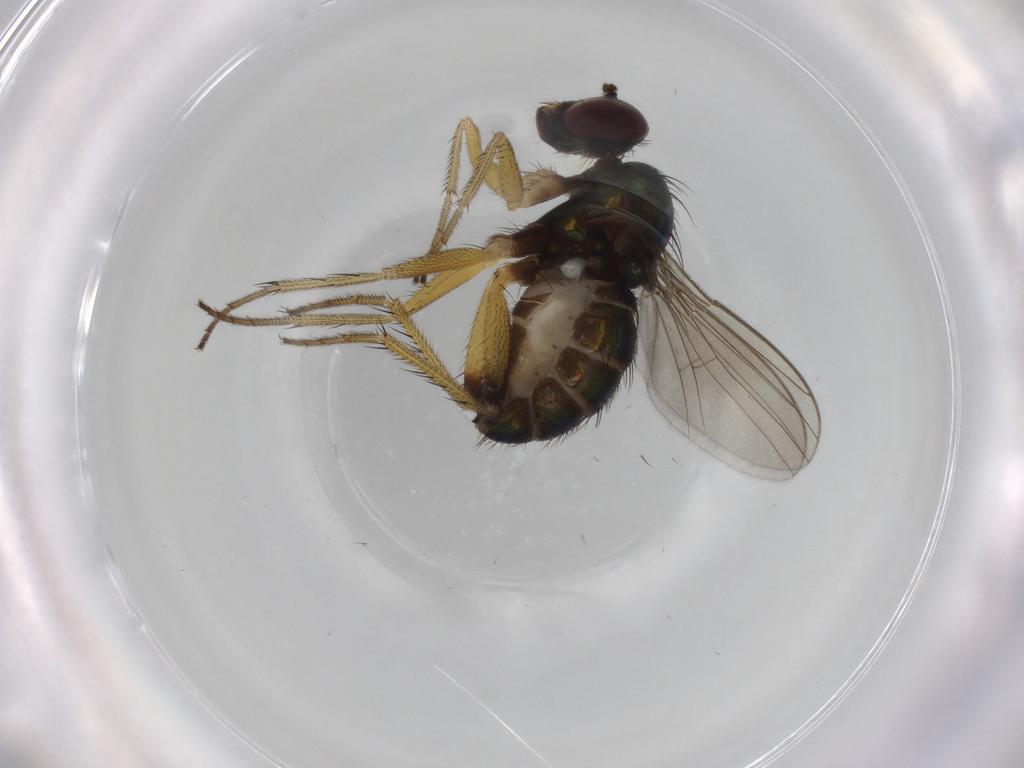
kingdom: Animalia
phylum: Arthropoda
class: Insecta
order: Diptera
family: Dolichopodidae
